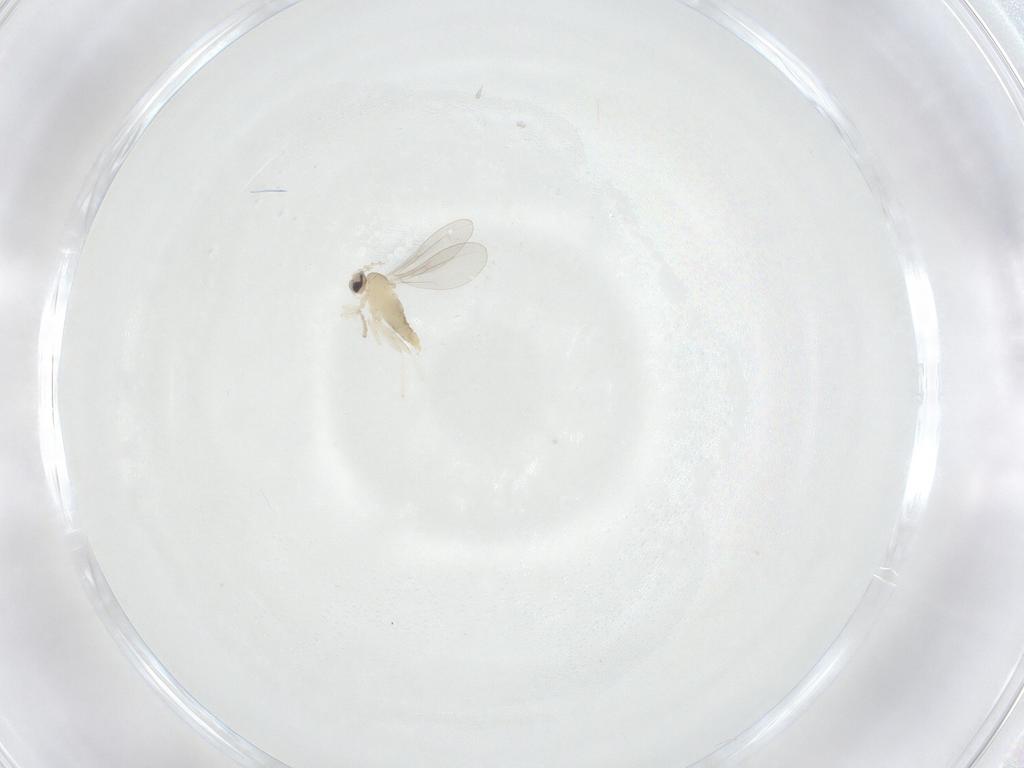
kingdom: Animalia
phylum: Arthropoda
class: Insecta
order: Diptera
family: Cecidomyiidae
